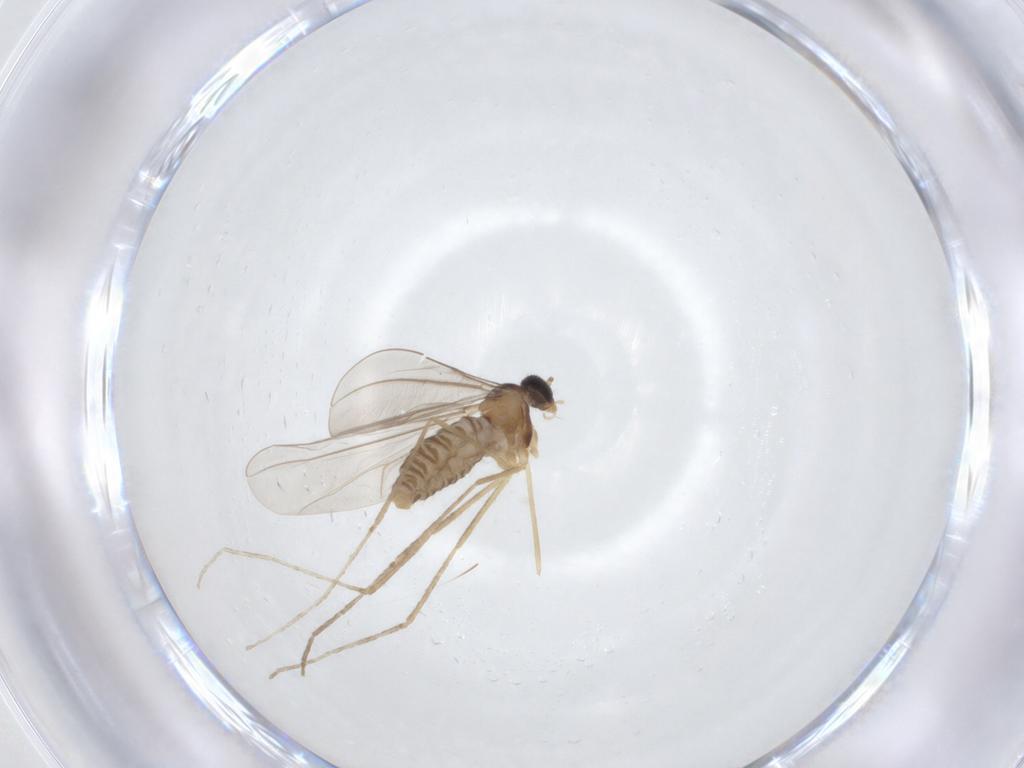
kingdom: Animalia
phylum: Arthropoda
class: Insecta
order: Diptera
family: Cecidomyiidae
